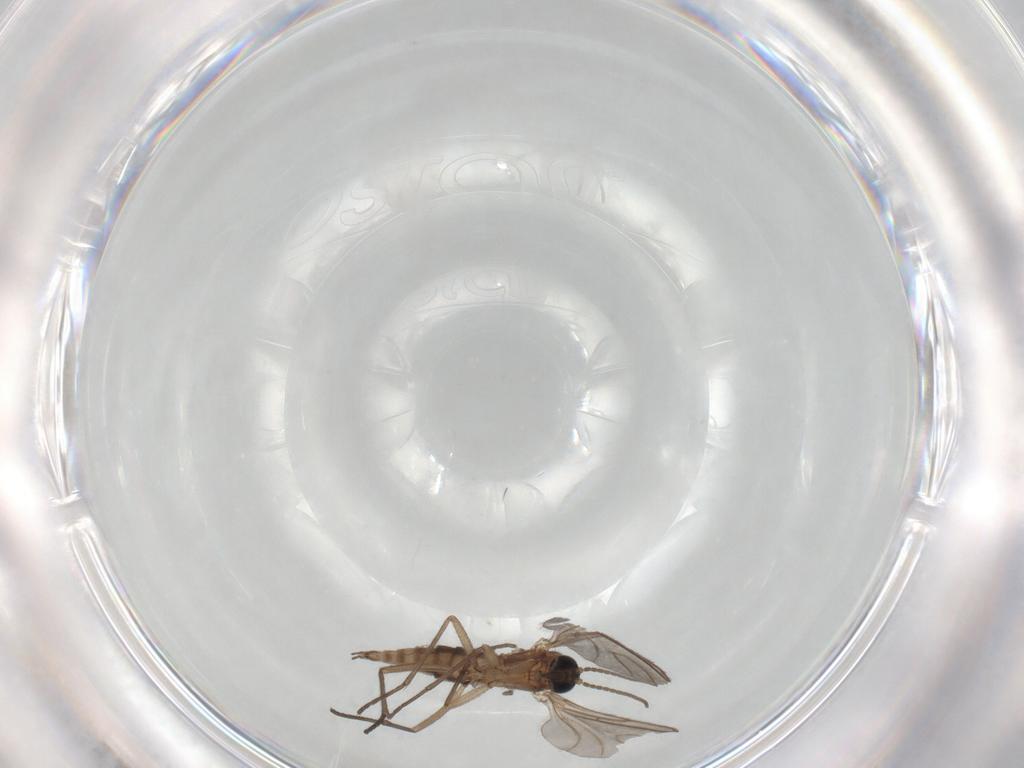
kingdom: Animalia
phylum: Arthropoda
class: Insecta
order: Diptera
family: Sciaridae
